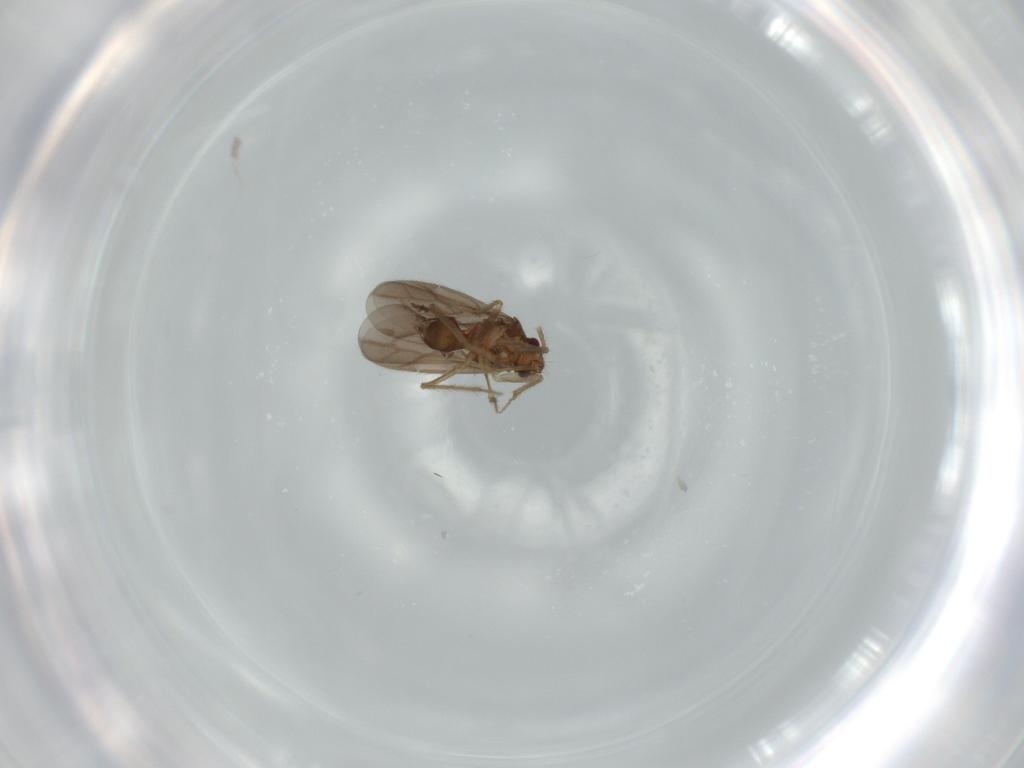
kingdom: Animalia
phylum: Arthropoda
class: Insecta
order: Hemiptera
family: Ceratocombidae
